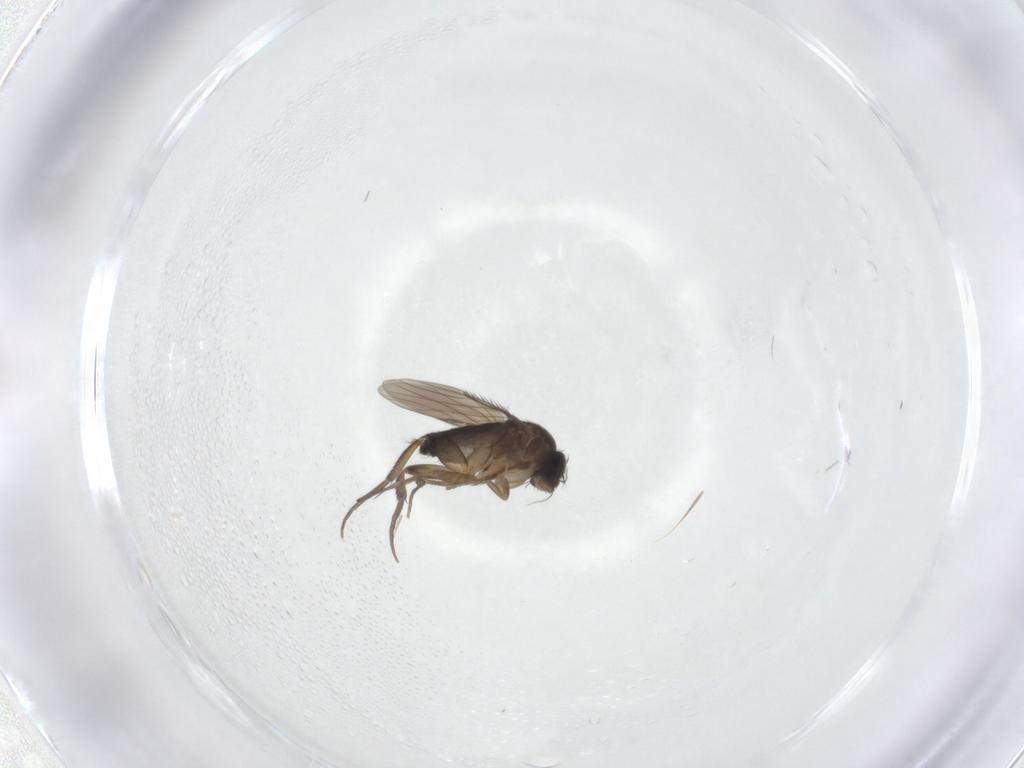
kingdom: Animalia
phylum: Arthropoda
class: Insecta
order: Diptera
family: Phoridae
